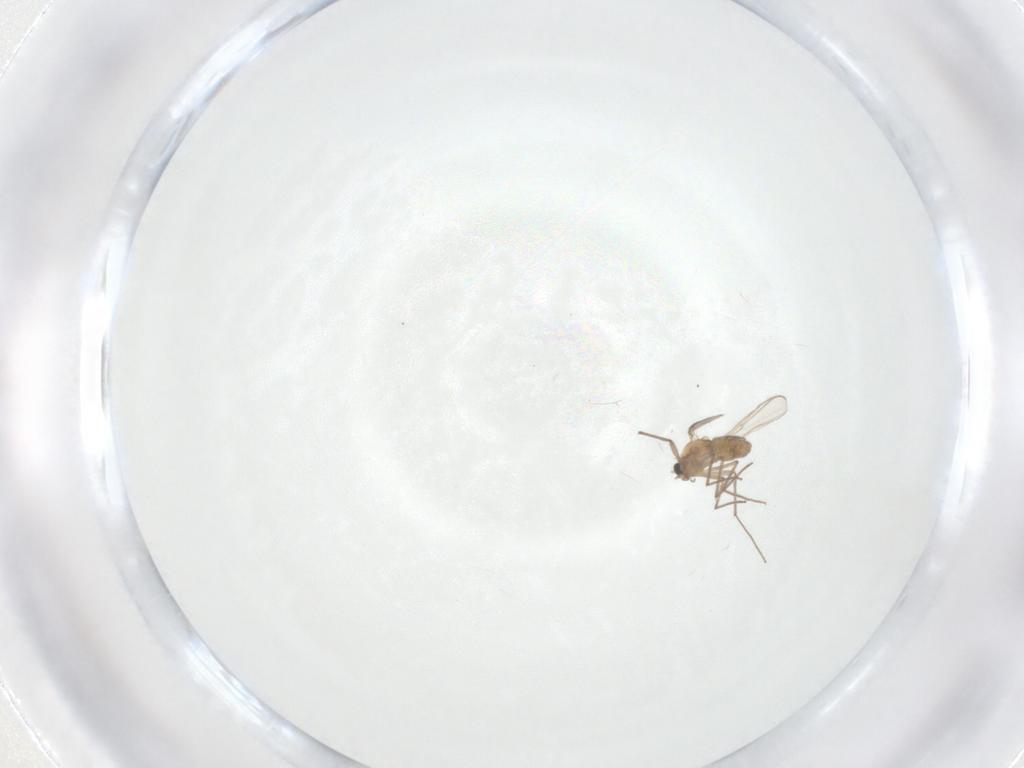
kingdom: Animalia
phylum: Arthropoda
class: Insecta
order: Diptera
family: Chironomidae
